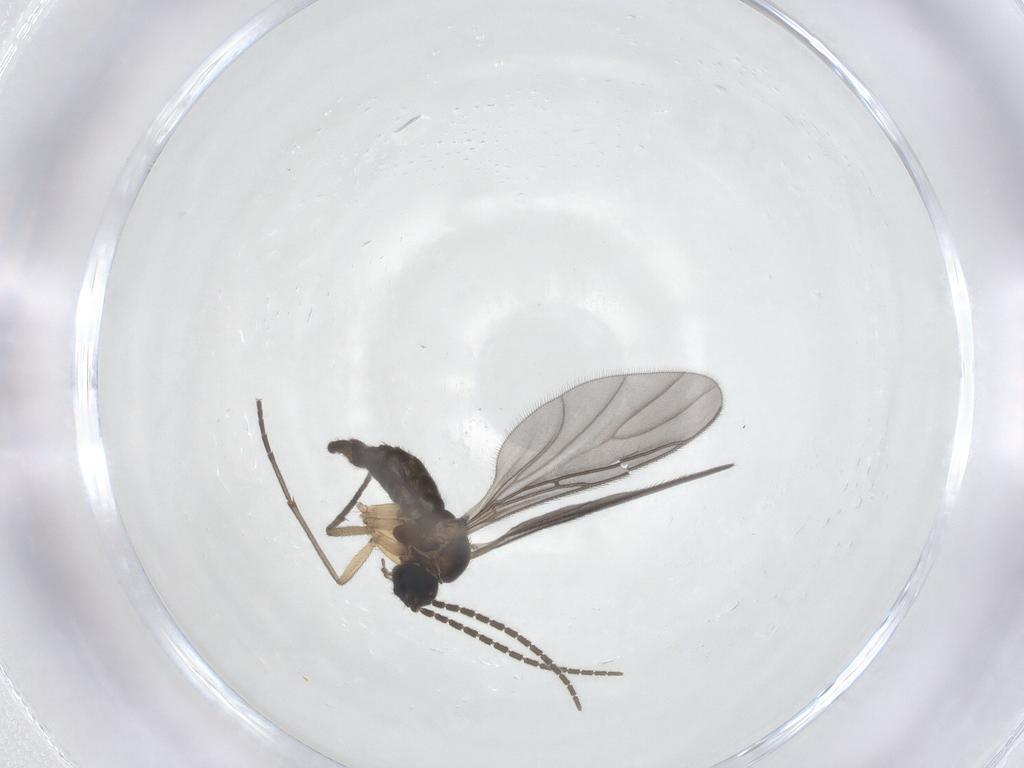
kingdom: Animalia
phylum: Arthropoda
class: Insecta
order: Diptera
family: Sciaridae
